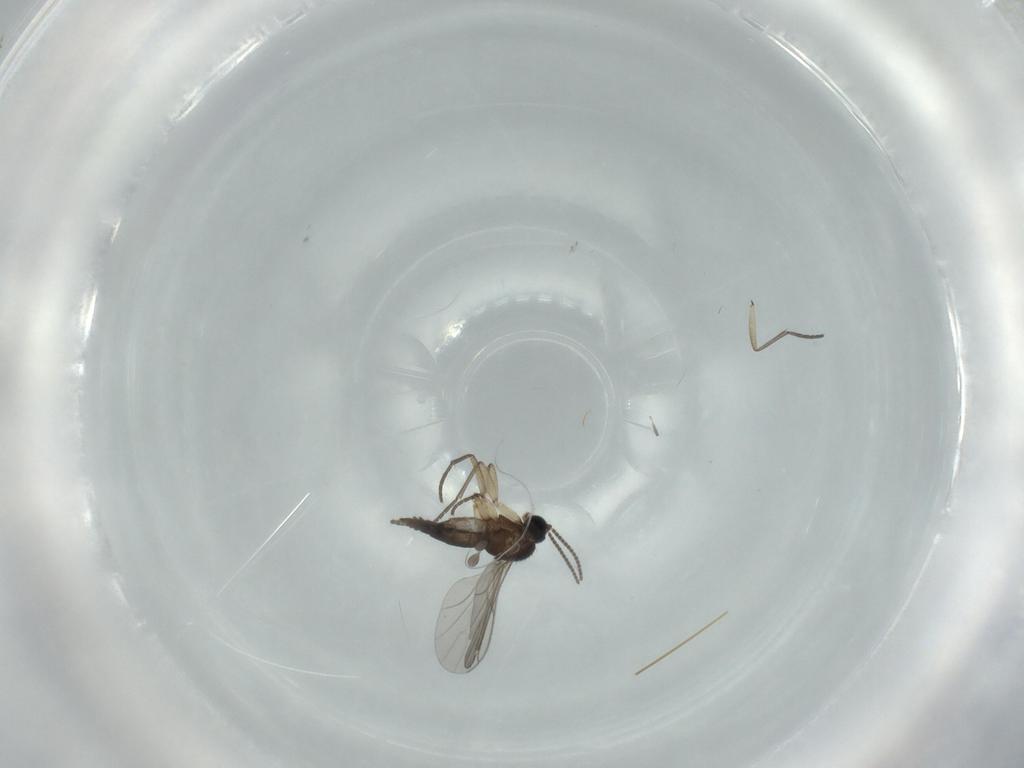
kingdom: Animalia
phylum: Arthropoda
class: Insecta
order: Diptera
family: Sciaridae
